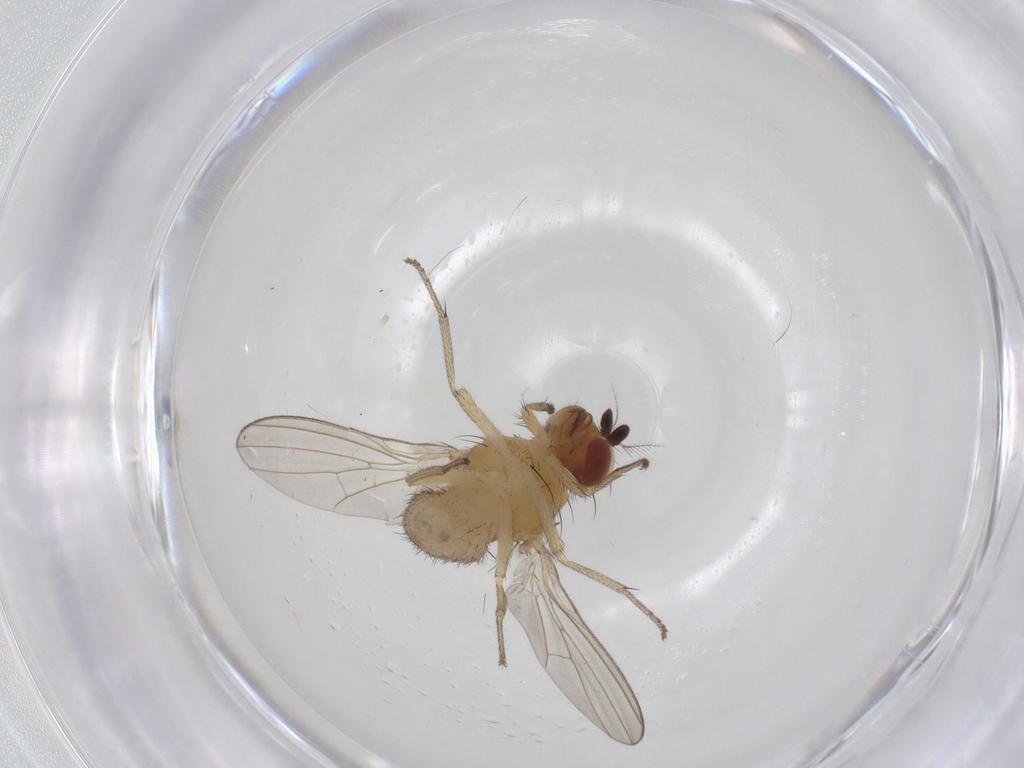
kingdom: Animalia
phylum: Arthropoda
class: Insecta
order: Diptera
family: Ceratopogonidae
